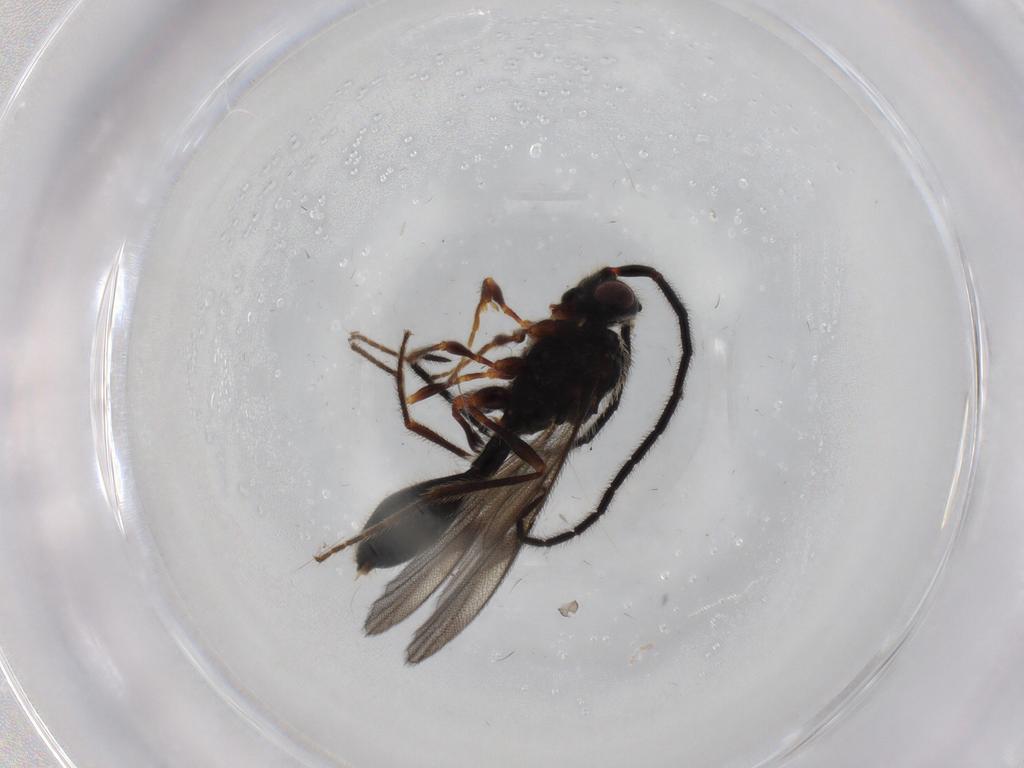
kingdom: Animalia
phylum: Arthropoda
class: Insecta
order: Hymenoptera
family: Diapriidae
